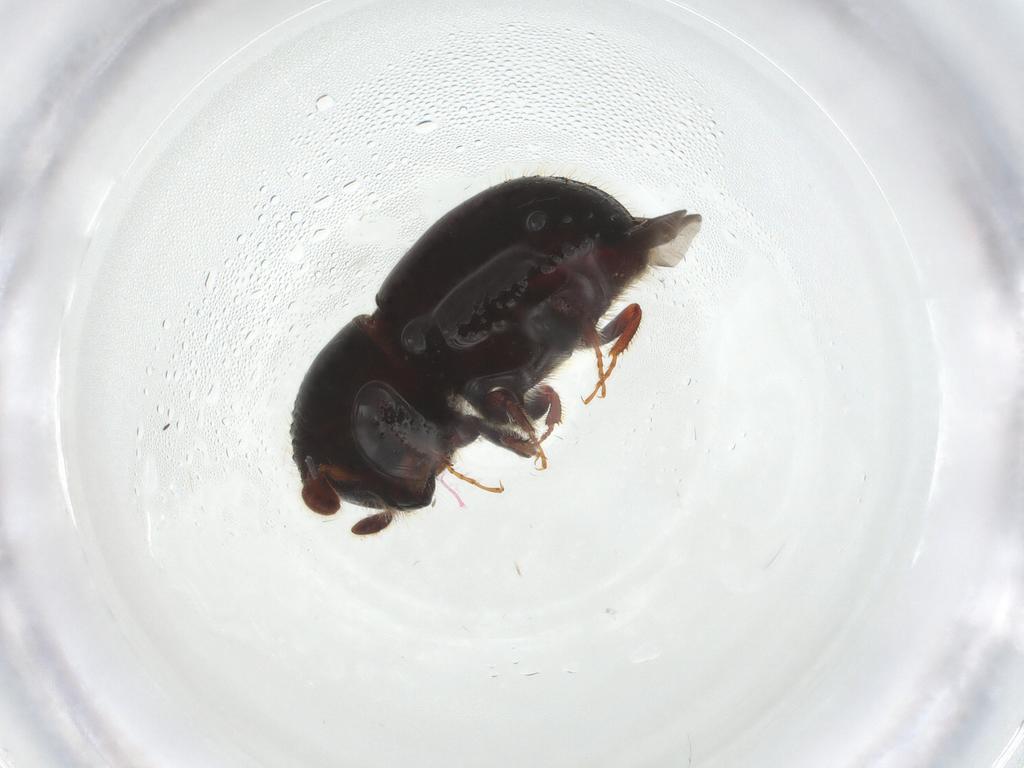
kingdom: Animalia
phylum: Arthropoda
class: Insecta
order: Coleoptera
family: Curculionidae
